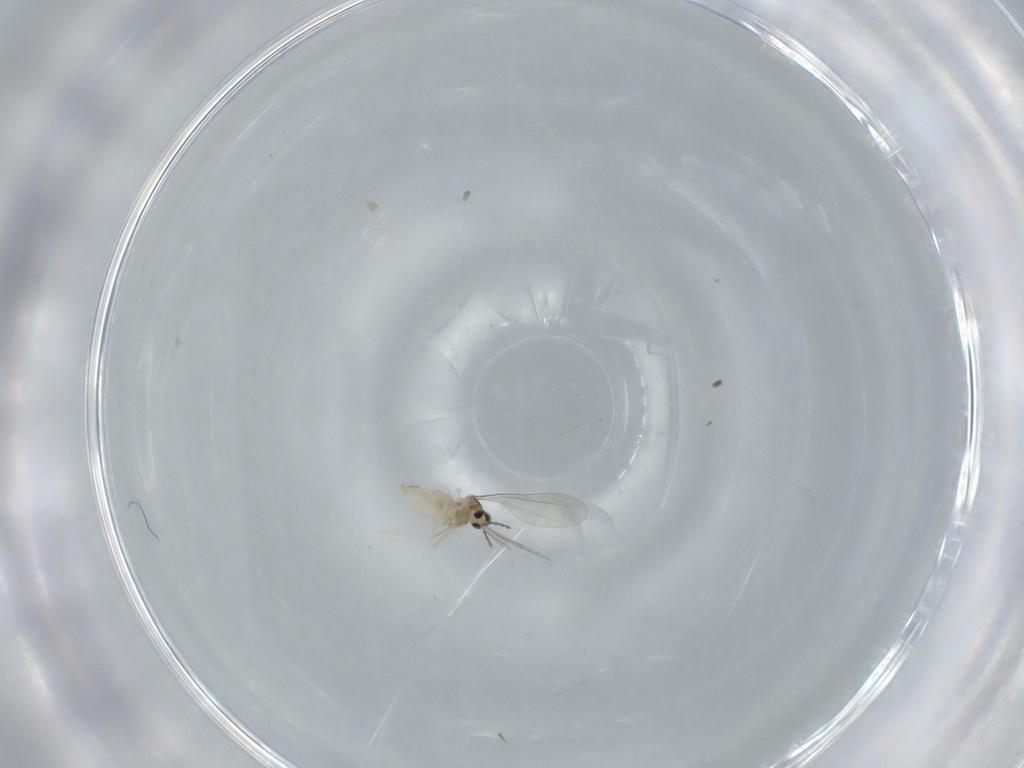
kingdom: Animalia
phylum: Arthropoda
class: Insecta
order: Diptera
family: Cecidomyiidae
